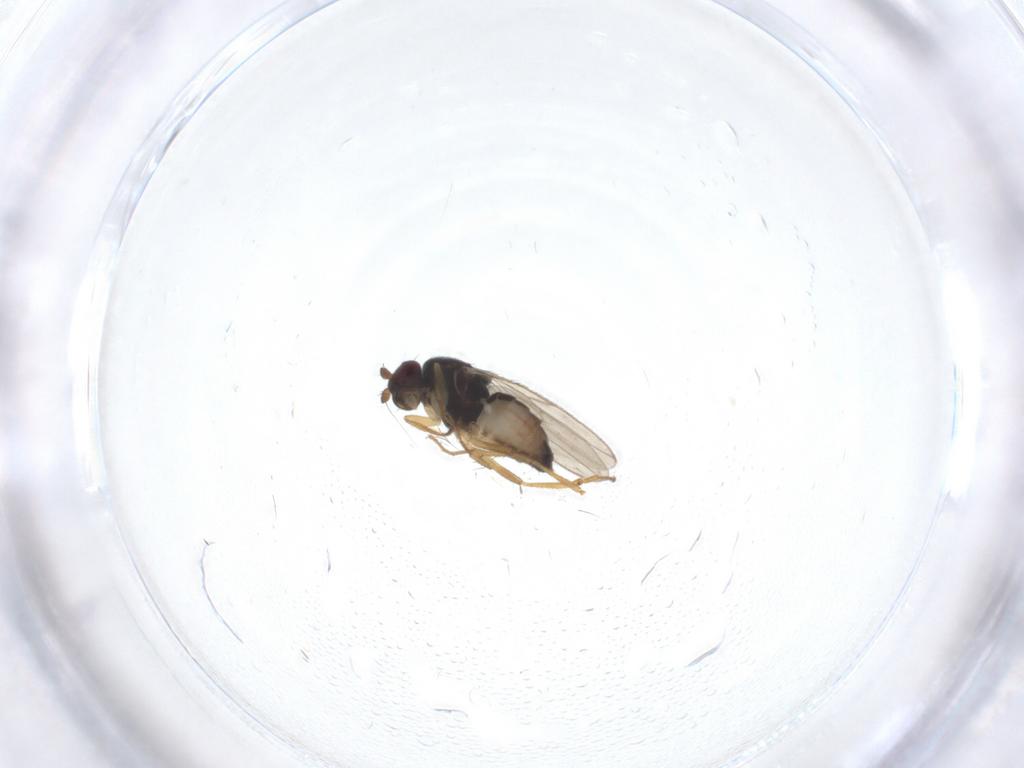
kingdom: Animalia
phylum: Arthropoda
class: Insecta
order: Diptera
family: Sphaeroceridae
